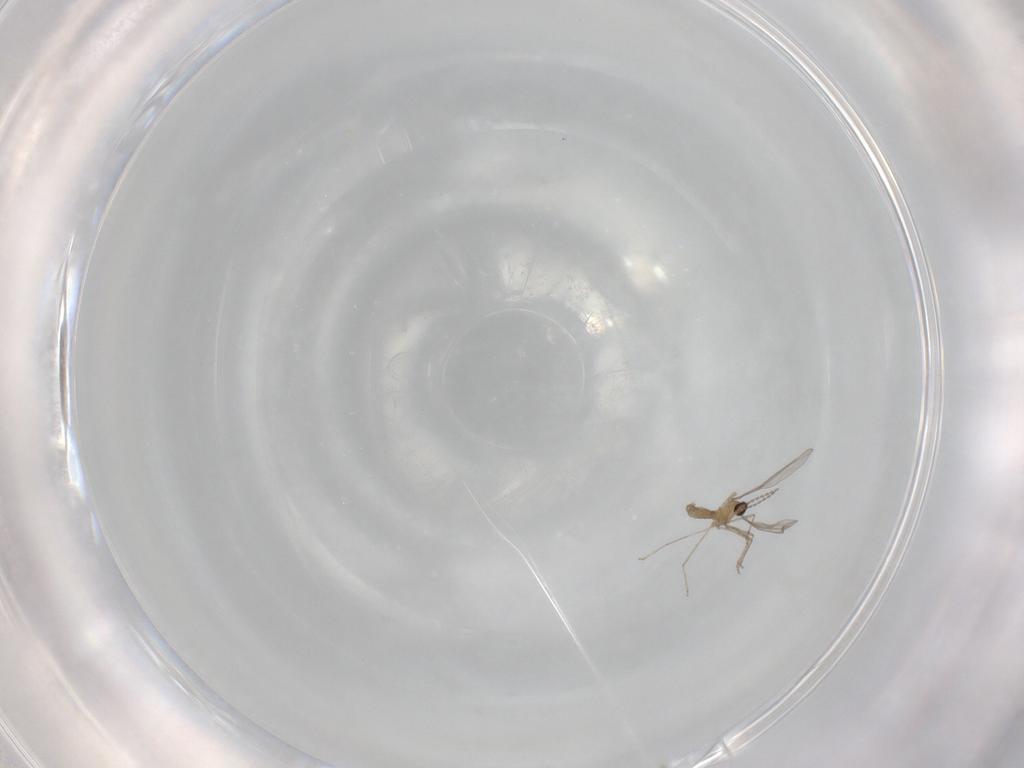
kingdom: Animalia
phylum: Arthropoda
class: Insecta
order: Diptera
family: Cecidomyiidae
